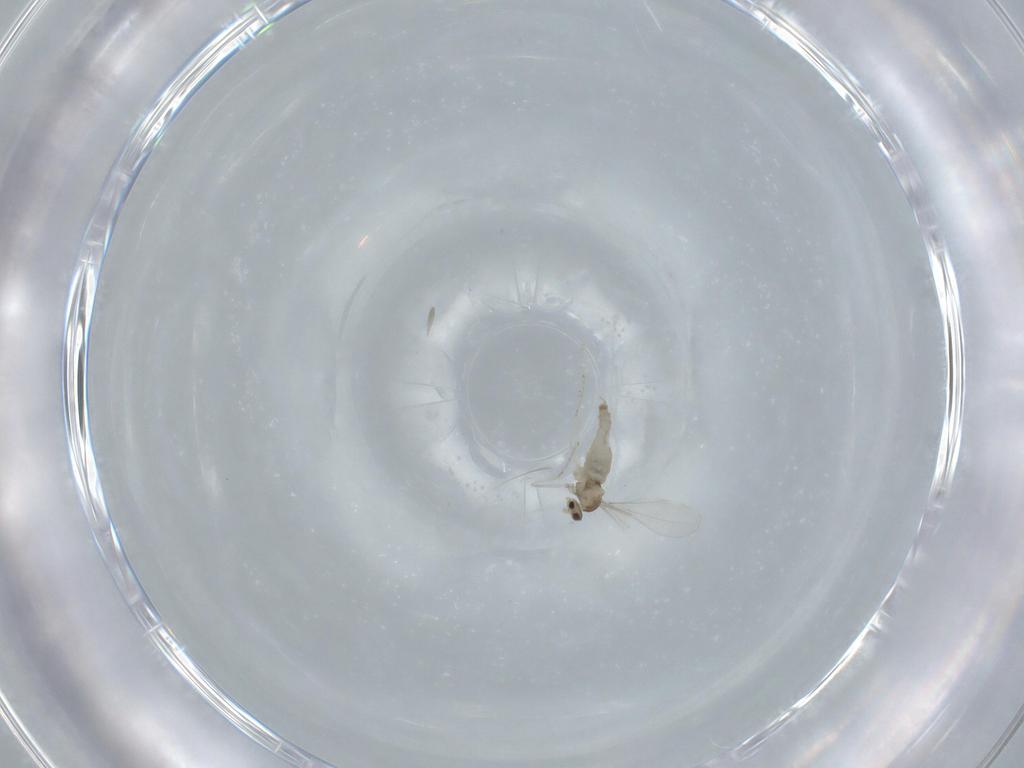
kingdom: Animalia
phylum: Arthropoda
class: Insecta
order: Diptera
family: Cecidomyiidae
